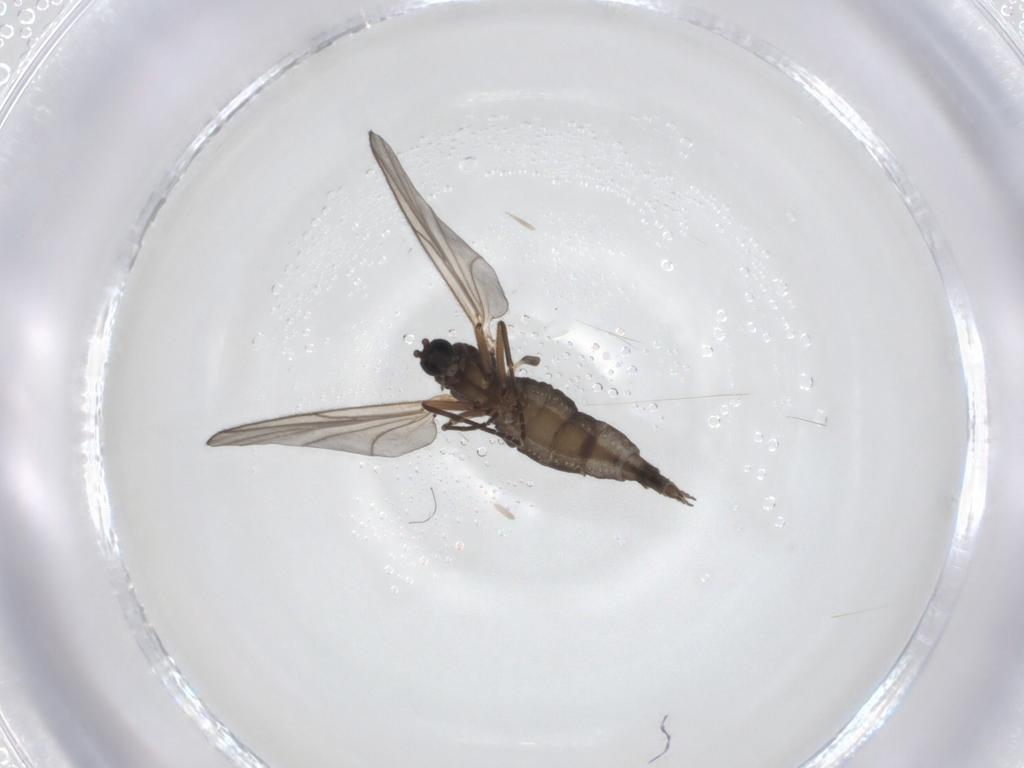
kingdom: Animalia
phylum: Arthropoda
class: Insecta
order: Diptera
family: Sciaridae
